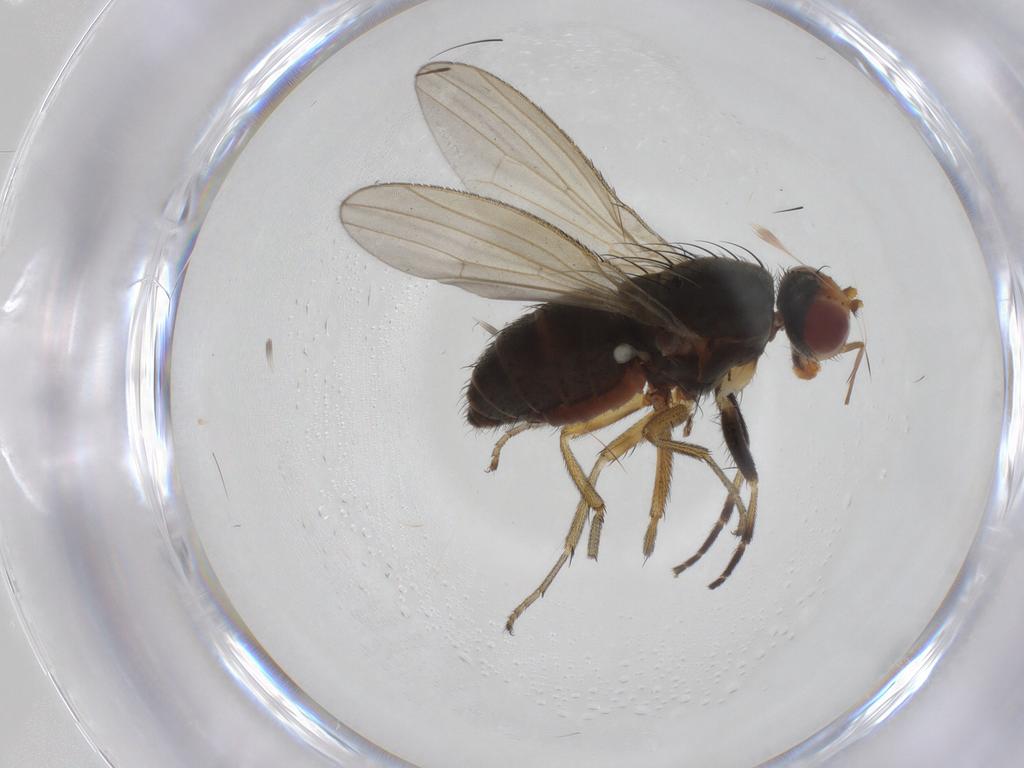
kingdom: Animalia
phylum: Arthropoda
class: Insecta
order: Diptera
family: Ulidiidae
